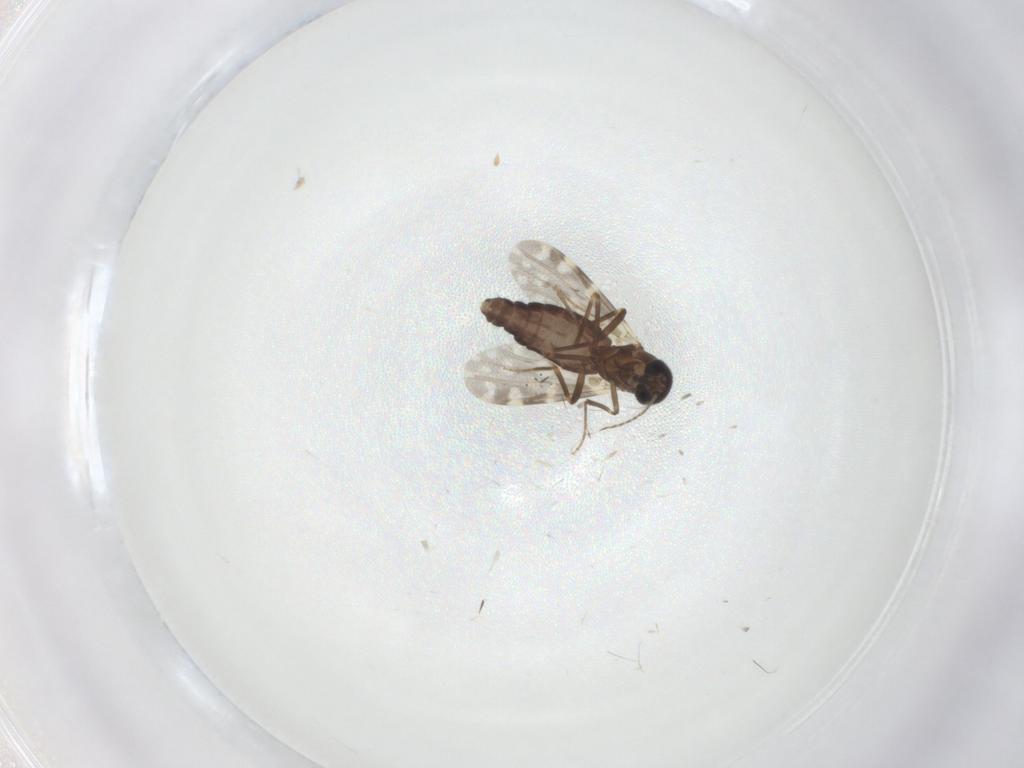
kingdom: Animalia
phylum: Arthropoda
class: Insecta
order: Diptera
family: Ceratopogonidae
